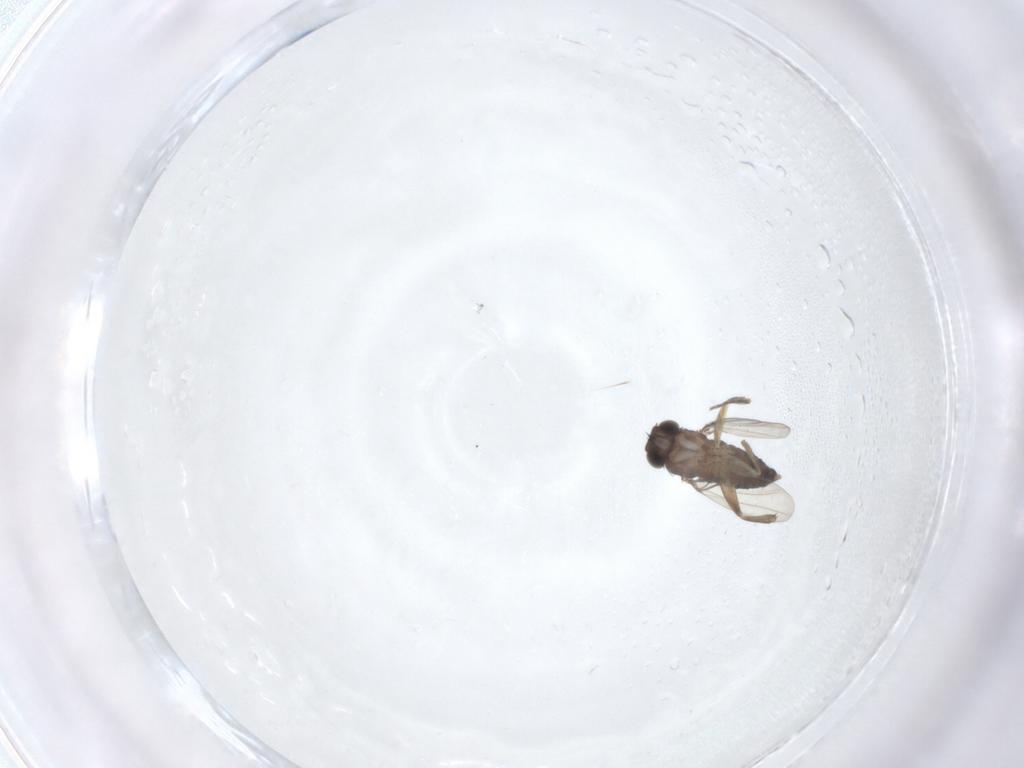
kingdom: Animalia
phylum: Arthropoda
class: Insecta
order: Diptera
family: Phoridae
